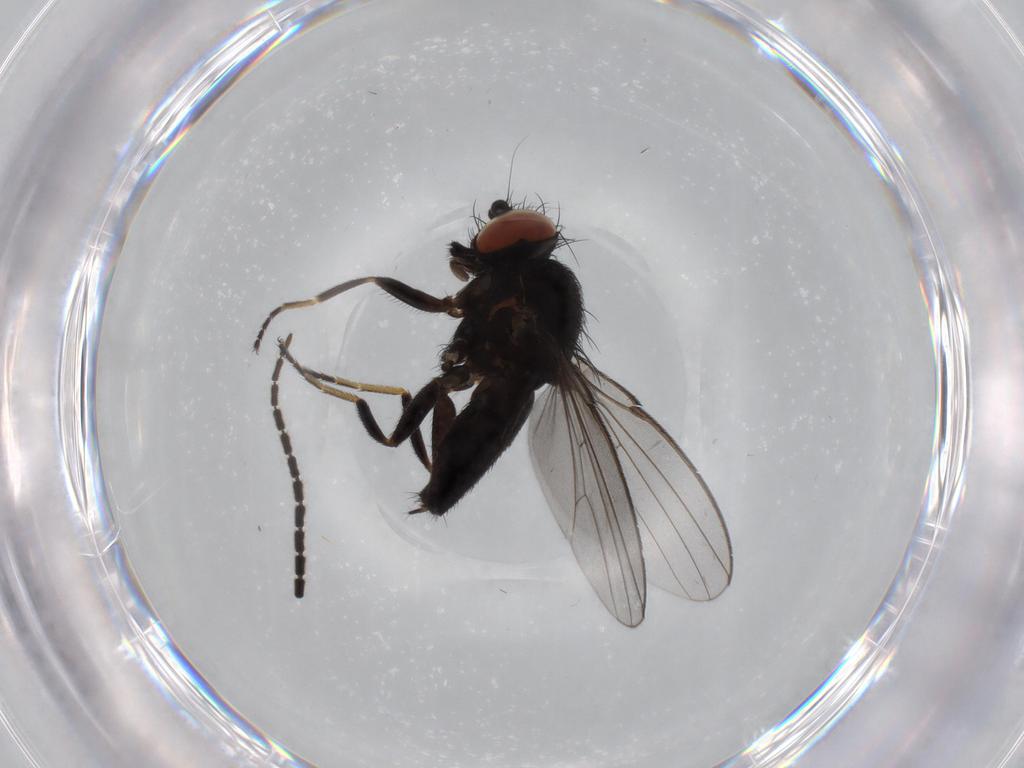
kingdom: Animalia
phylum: Arthropoda
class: Insecta
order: Diptera
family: Milichiidae
